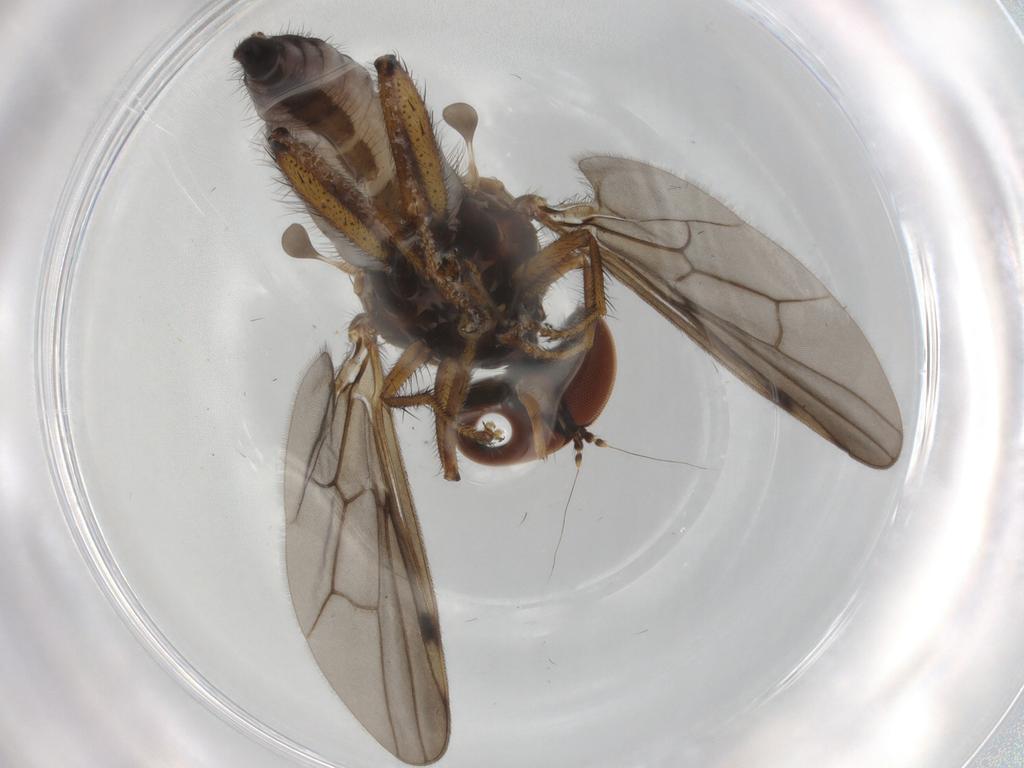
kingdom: Animalia
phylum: Arthropoda
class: Insecta
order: Diptera
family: Hybotidae
